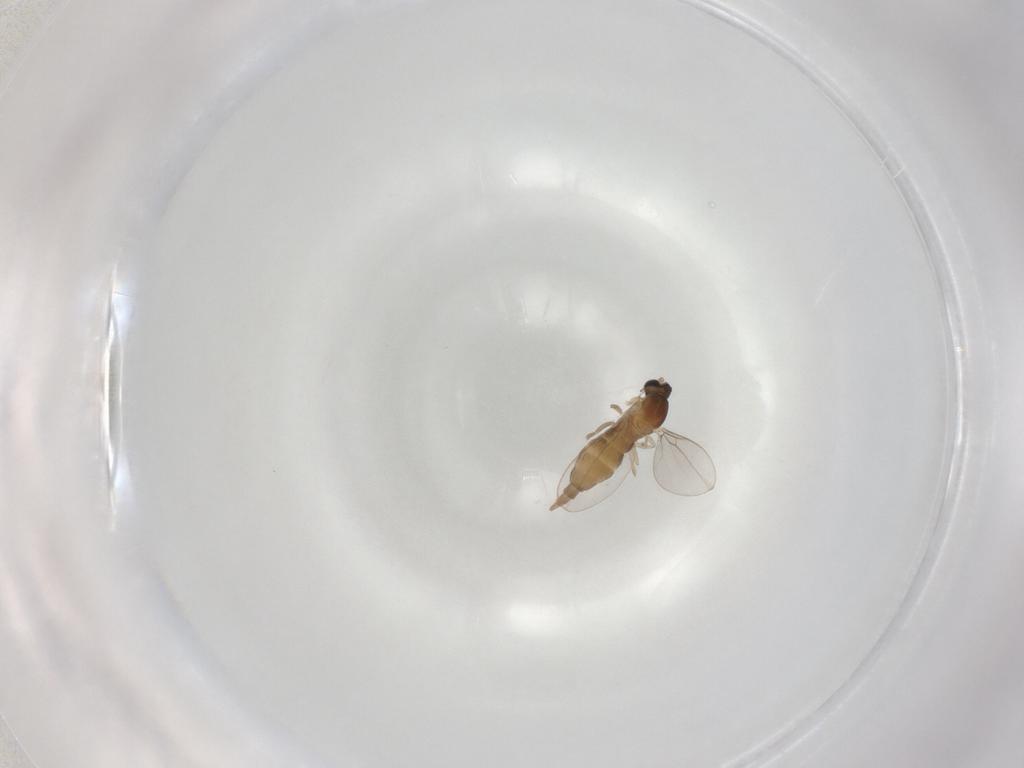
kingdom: Animalia
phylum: Arthropoda
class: Insecta
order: Diptera
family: Cecidomyiidae
